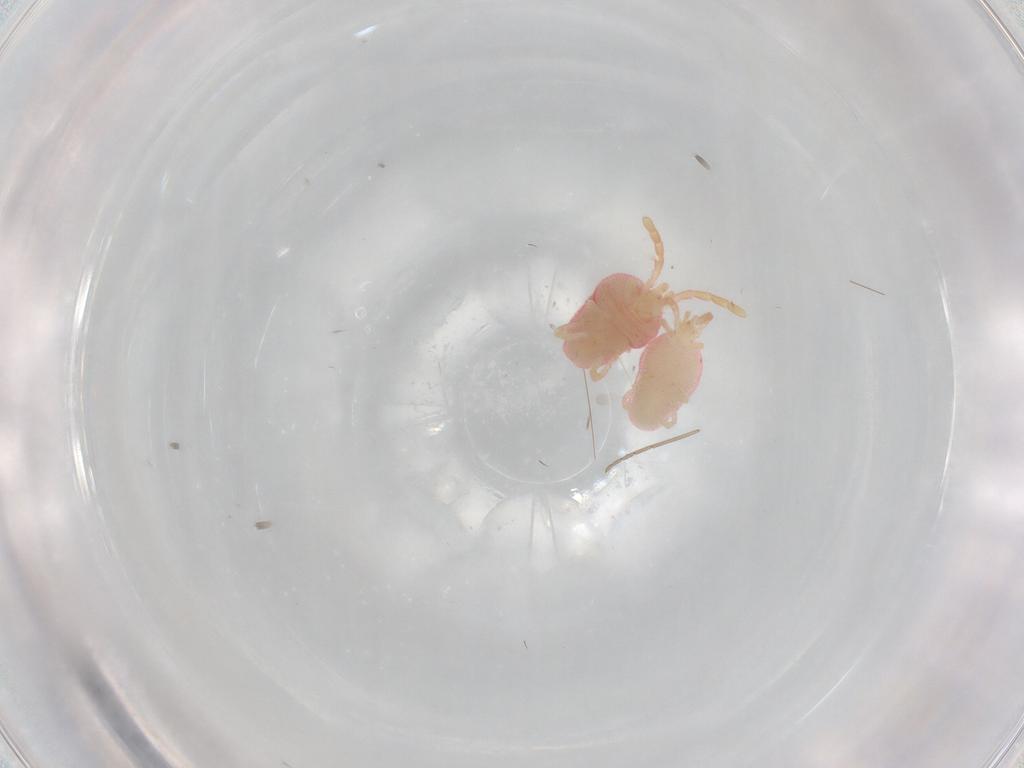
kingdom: Animalia
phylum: Arthropoda
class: Insecta
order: Diptera
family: Cecidomyiidae
